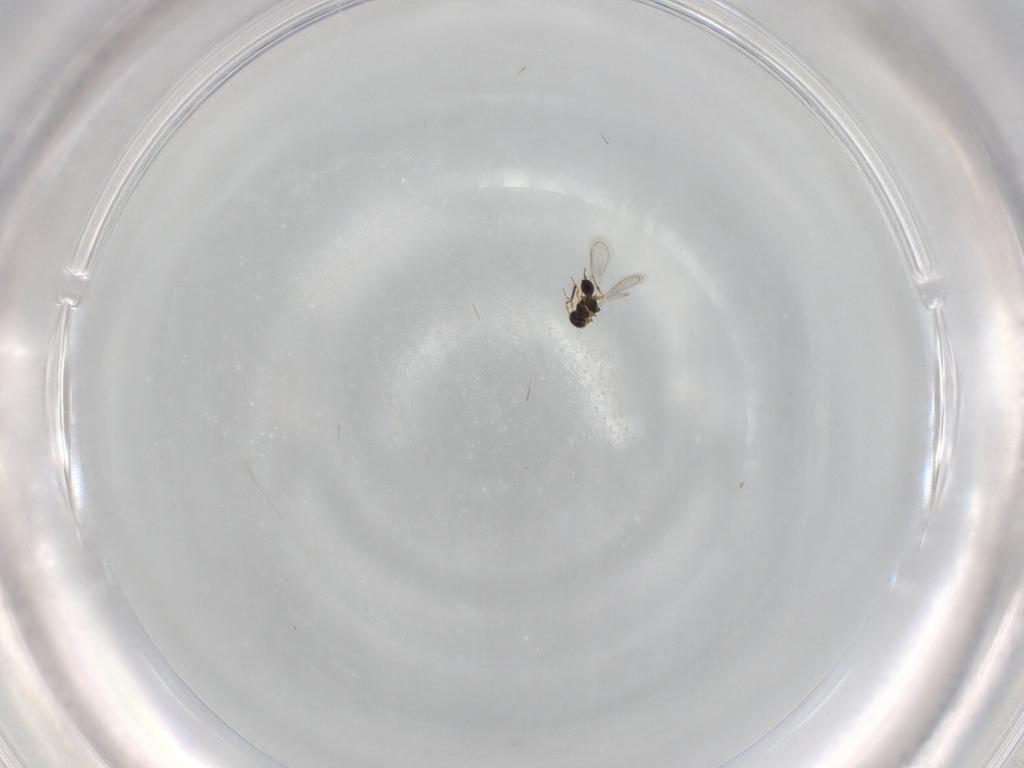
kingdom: Animalia
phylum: Arthropoda
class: Insecta
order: Hymenoptera
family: Platygastridae
